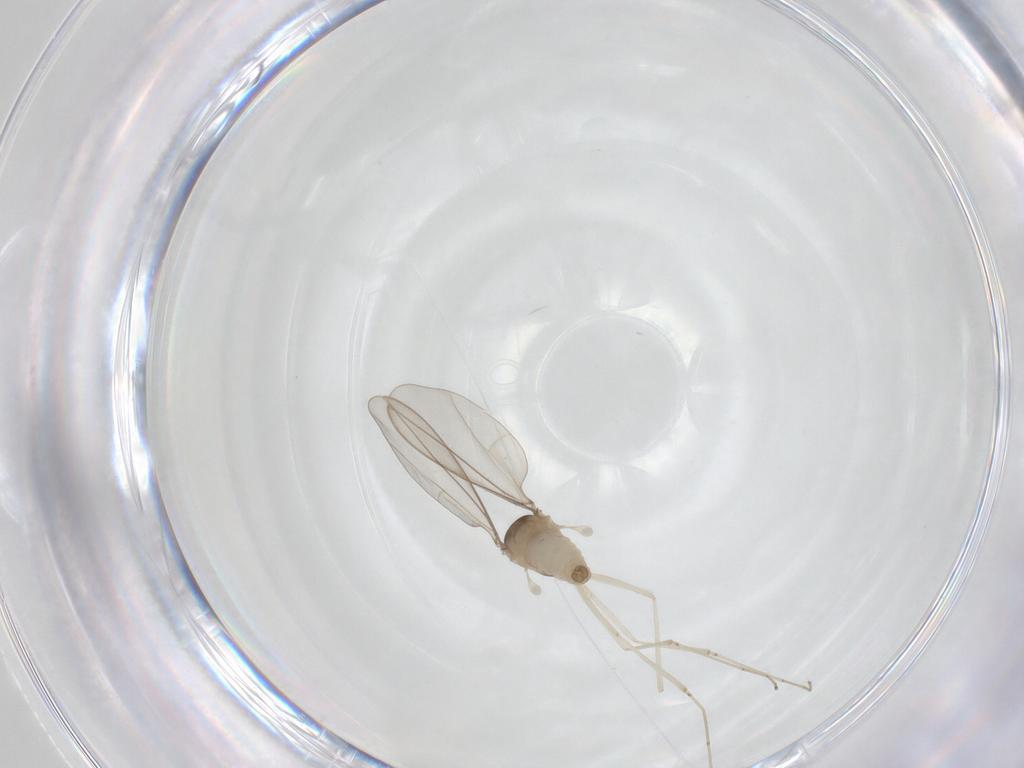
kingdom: Animalia
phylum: Arthropoda
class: Insecta
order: Diptera
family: Cecidomyiidae
